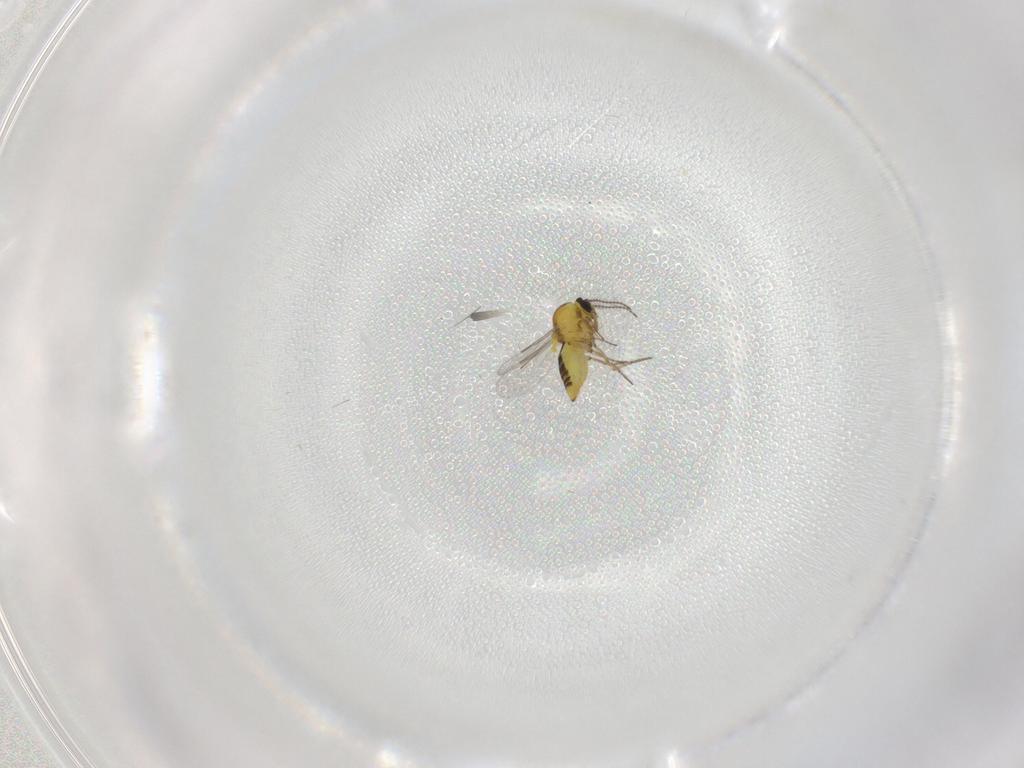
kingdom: Animalia
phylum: Arthropoda
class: Insecta
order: Diptera
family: Ceratopogonidae
